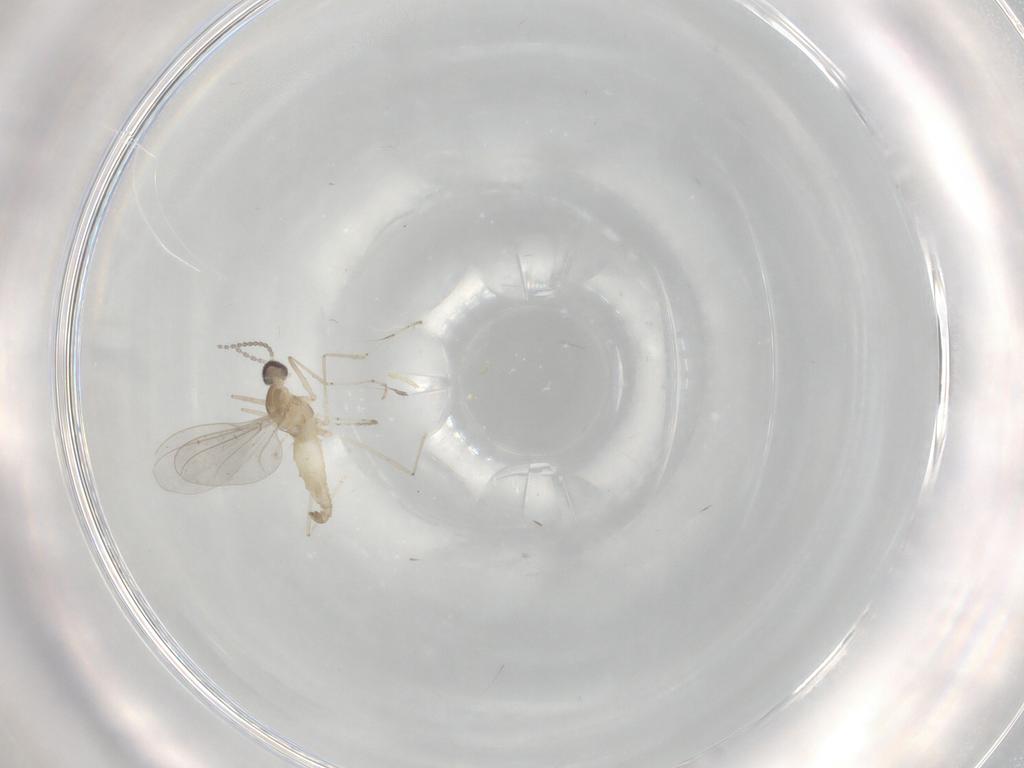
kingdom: Animalia
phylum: Arthropoda
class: Insecta
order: Diptera
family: Cecidomyiidae
